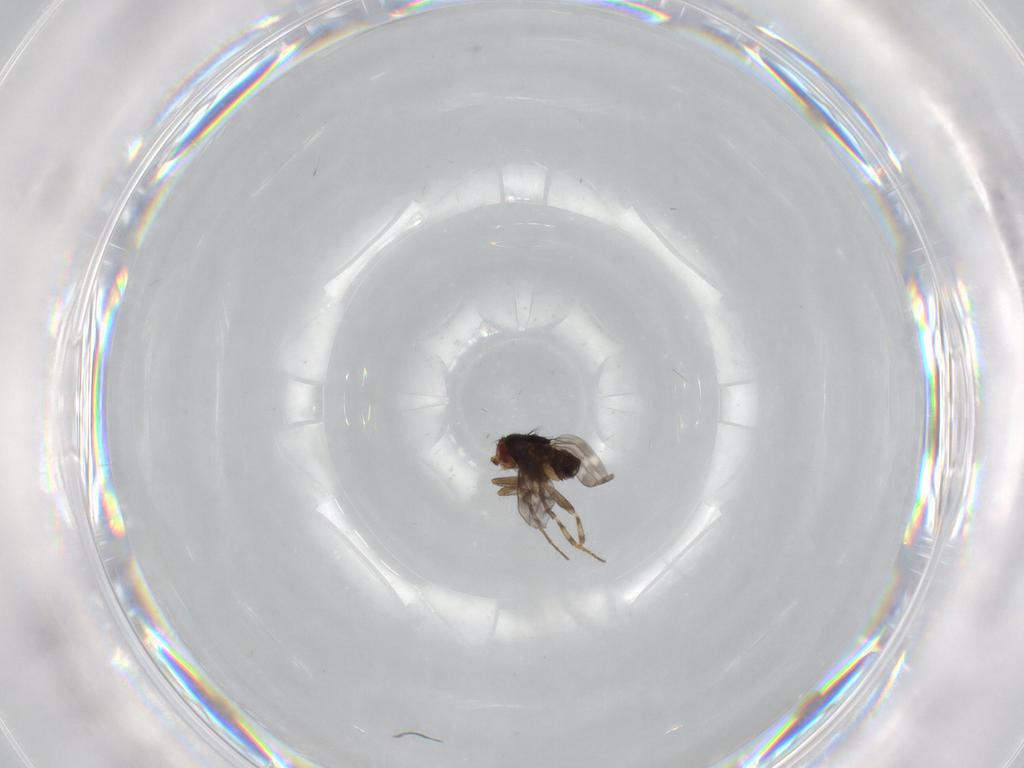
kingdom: Animalia
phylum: Arthropoda
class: Insecta
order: Diptera
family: Sphaeroceridae
